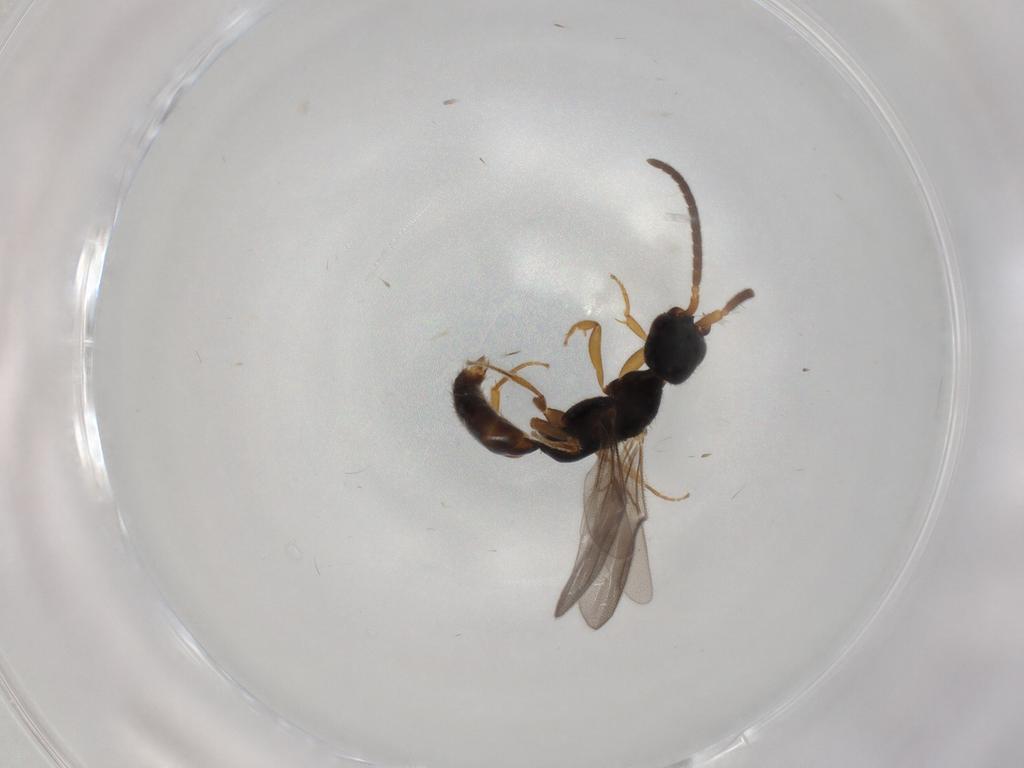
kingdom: Animalia
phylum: Arthropoda
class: Insecta
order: Hymenoptera
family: Bethylidae
